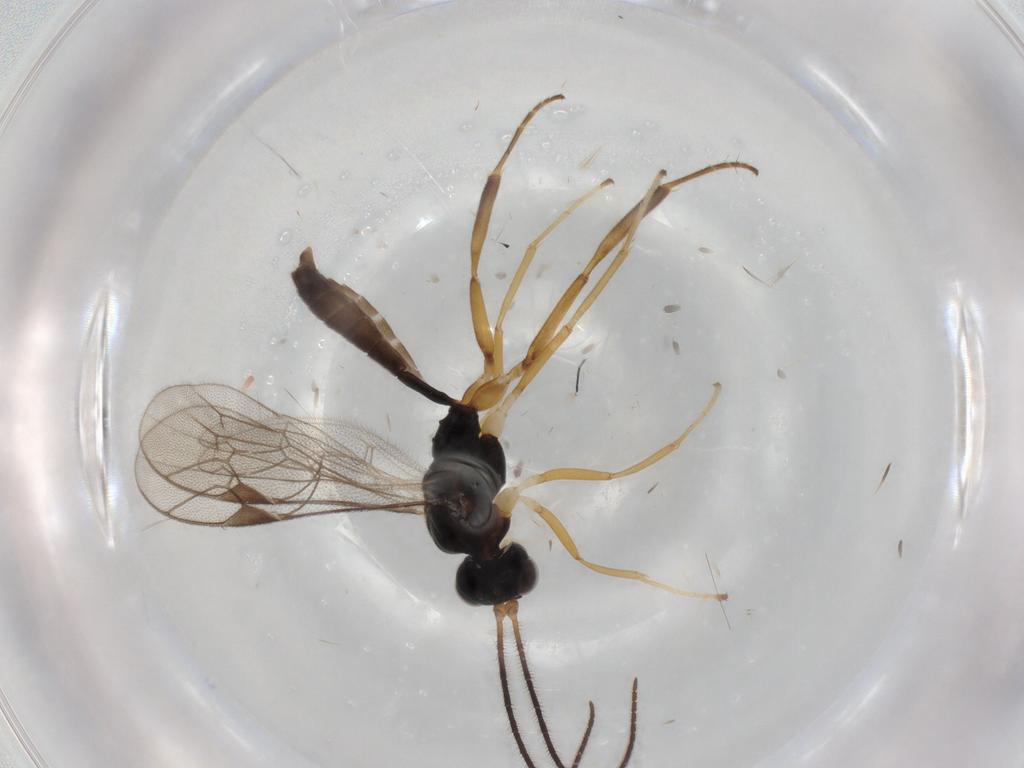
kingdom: Animalia
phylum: Arthropoda
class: Insecta
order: Hymenoptera
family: Ichneumonidae
